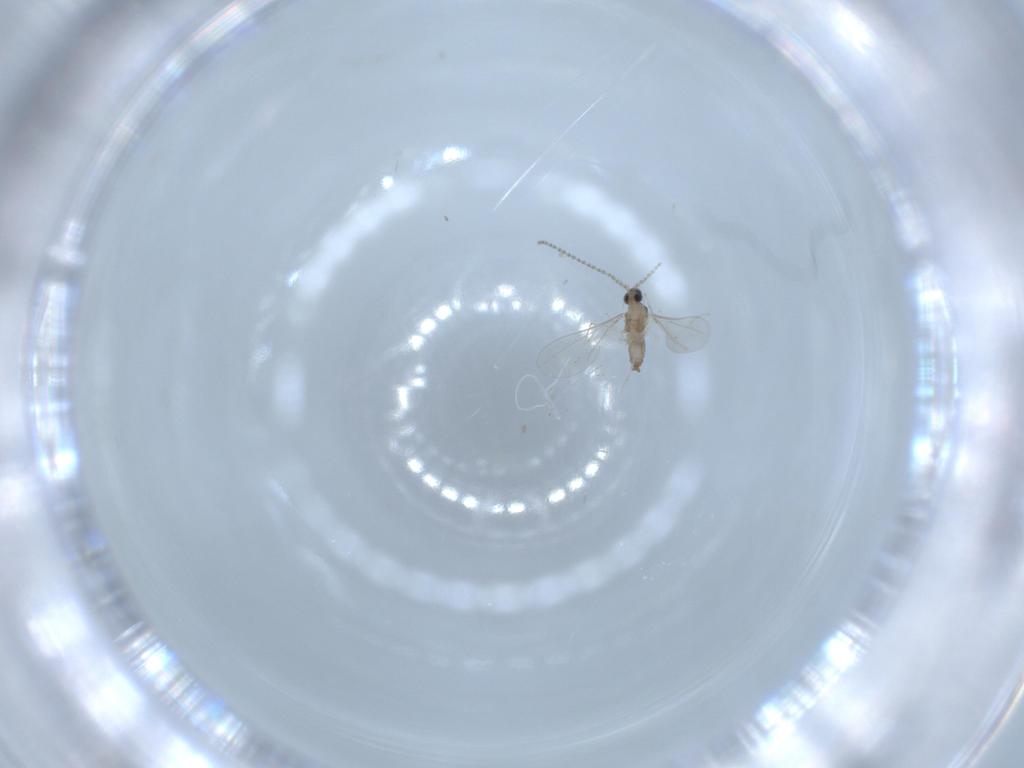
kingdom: Animalia
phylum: Arthropoda
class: Insecta
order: Diptera
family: Cecidomyiidae
